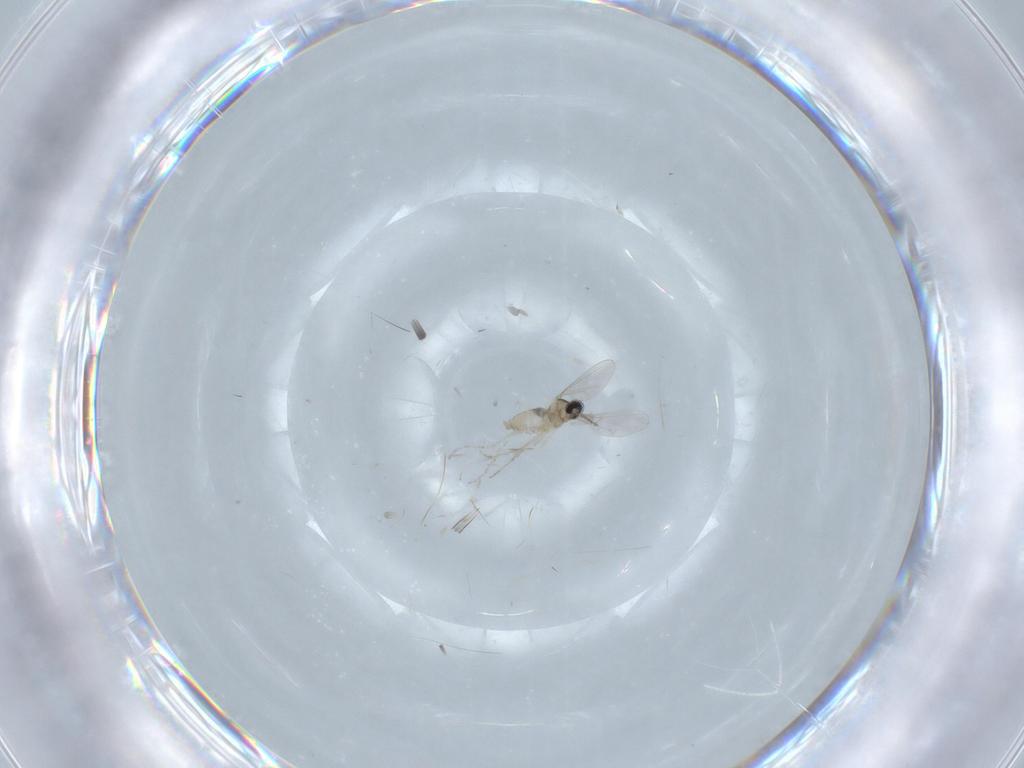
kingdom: Animalia
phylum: Arthropoda
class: Insecta
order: Diptera
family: Cecidomyiidae
